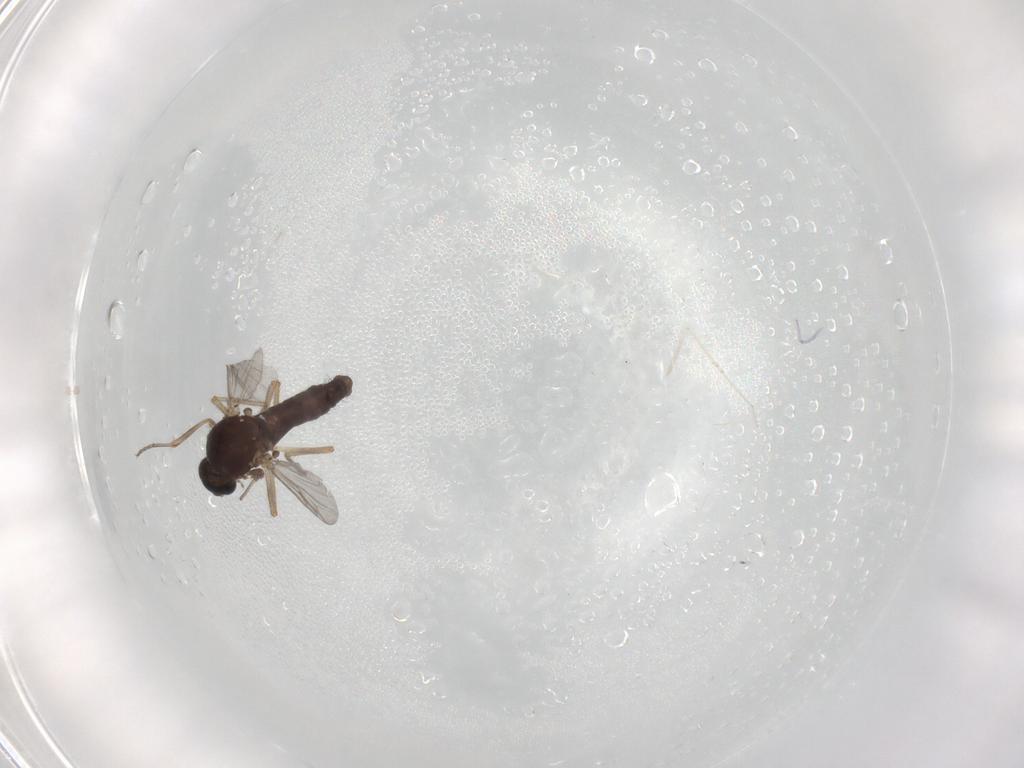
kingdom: Animalia
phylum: Arthropoda
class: Insecta
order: Diptera
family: Ceratopogonidae
